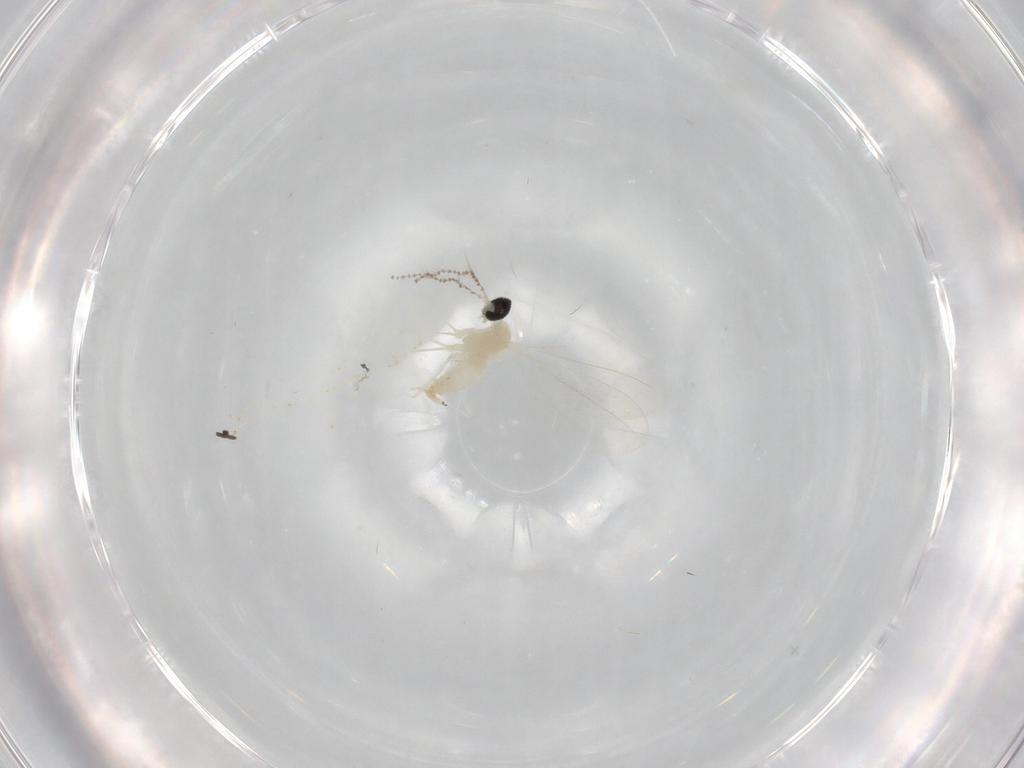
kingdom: Animalia
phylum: Arthropoda
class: Insecta
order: Diptera
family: Cecidomyiidae
